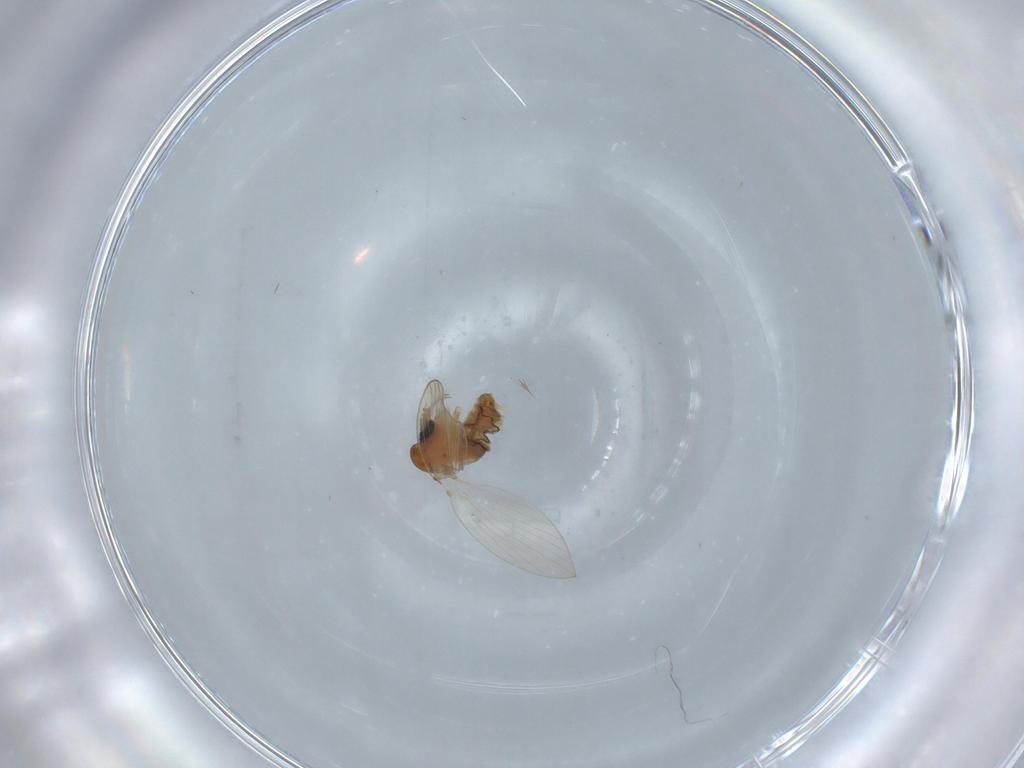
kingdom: Animalia
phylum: Arthropoda
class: Insecta
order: Diptera
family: Psychodidae
